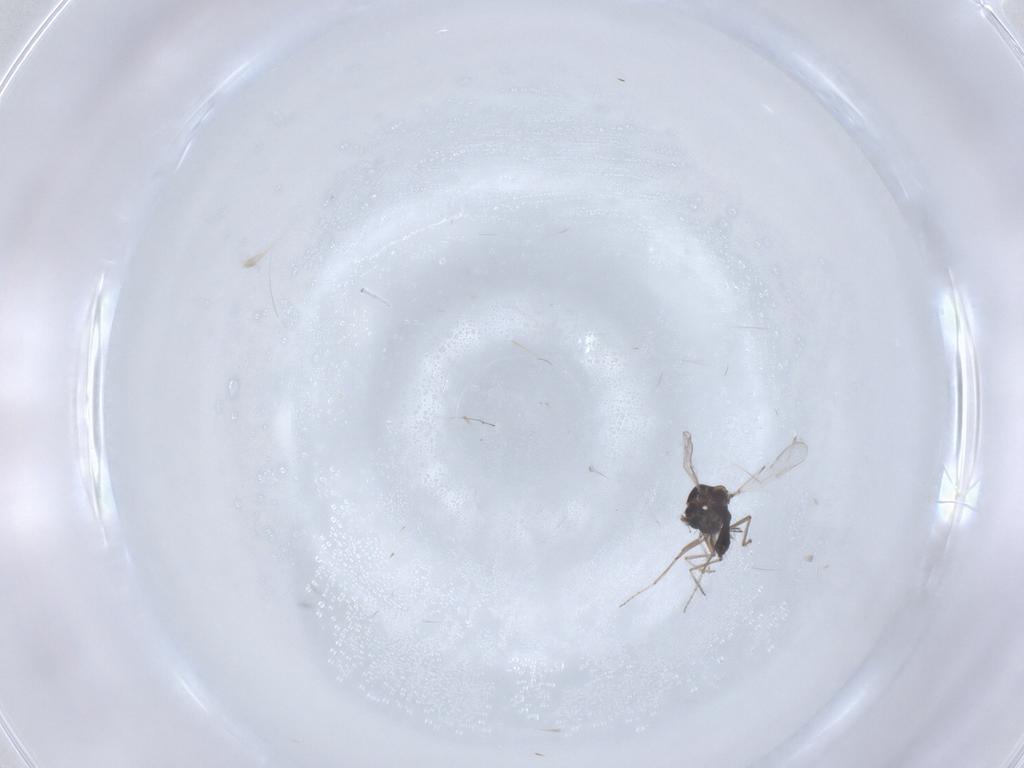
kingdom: Animalia
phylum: Arthropoda
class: Insecta
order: Diptera
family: Ceratopogonidae
